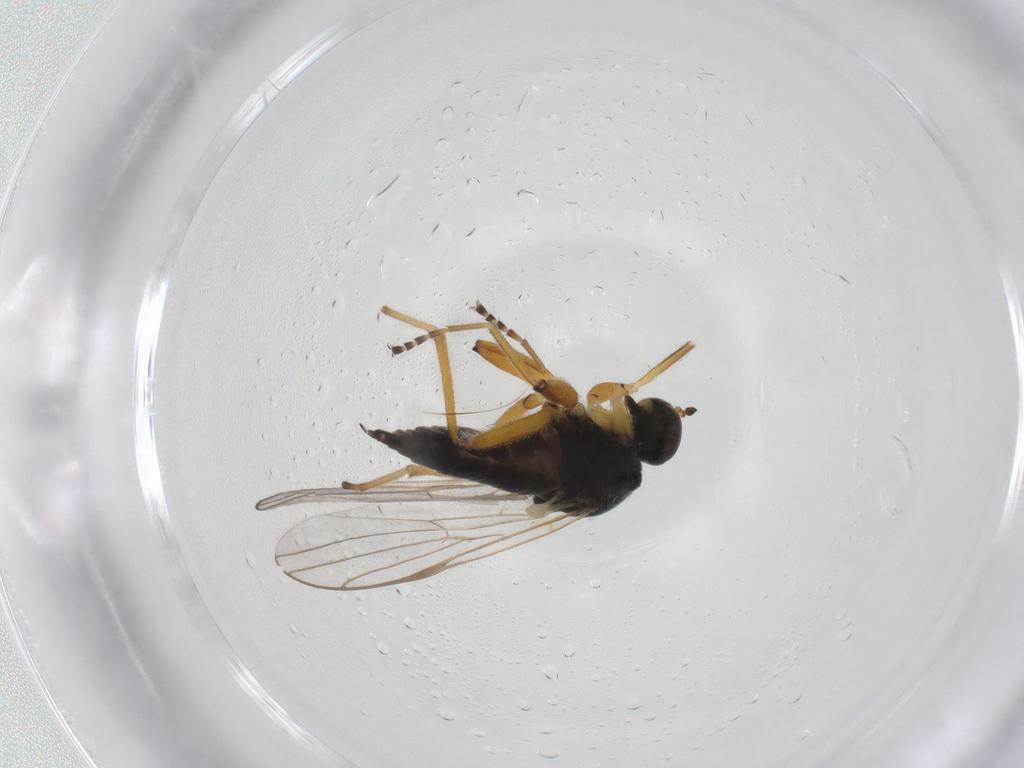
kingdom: Animalia
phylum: Arthropoda
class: Insecta
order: Diptera
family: Hybotidae
